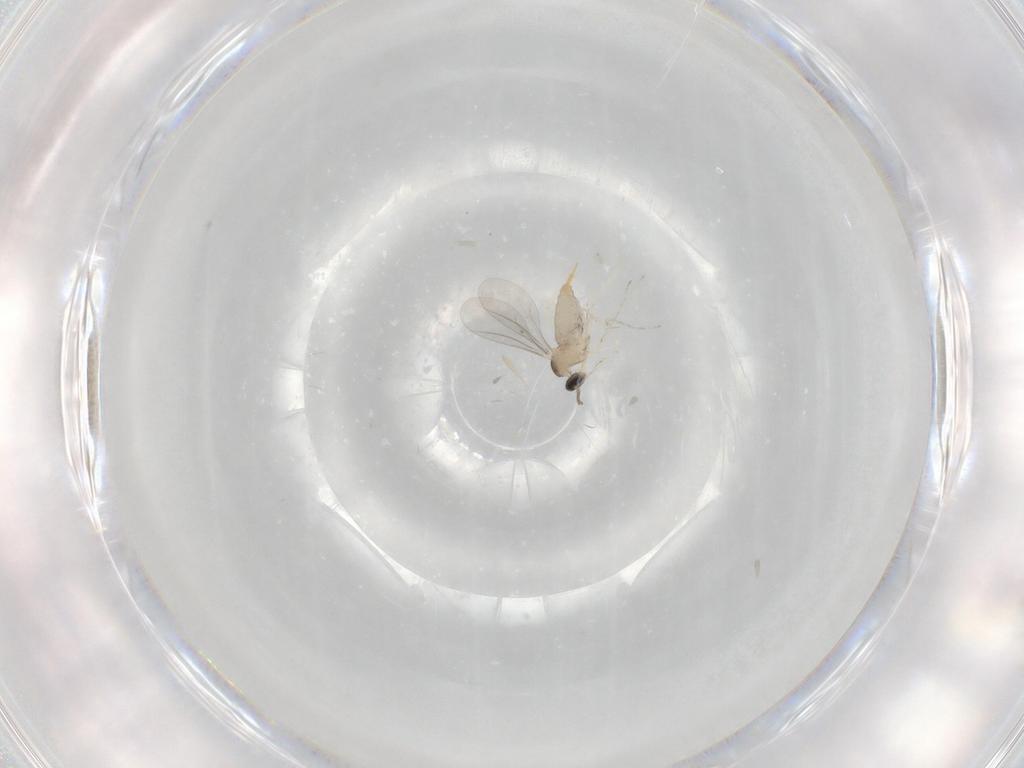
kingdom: Animalia
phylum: Arthropoda
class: Insecta
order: Diptera
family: Cecidomyiidae
